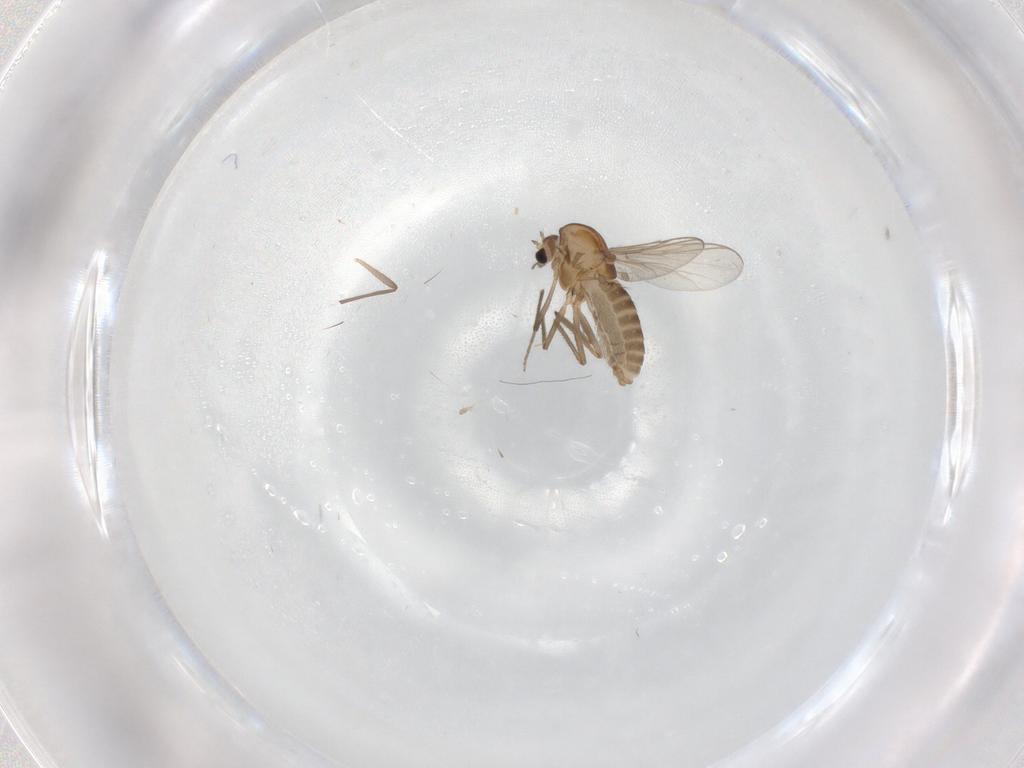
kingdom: Animalia
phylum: Arthropoda
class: Insecta
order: Diptera
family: Chironomidae
